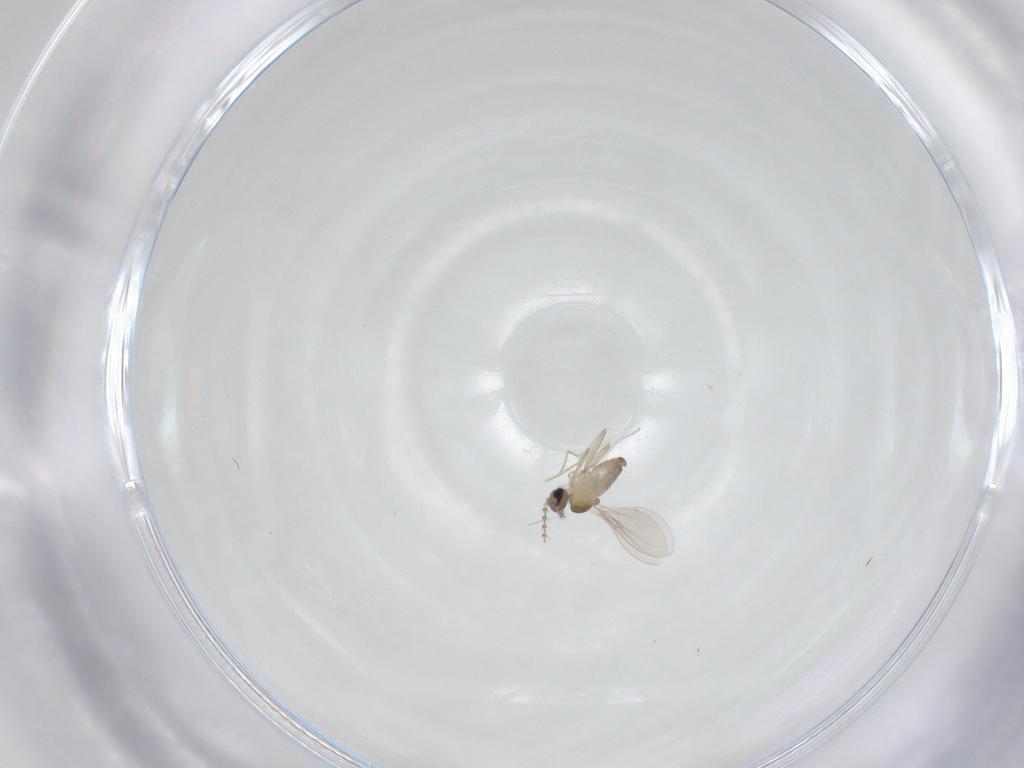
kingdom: Animalia
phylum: Arthropoda
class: Insecta
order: Diptera
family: Cecidomyiidae
